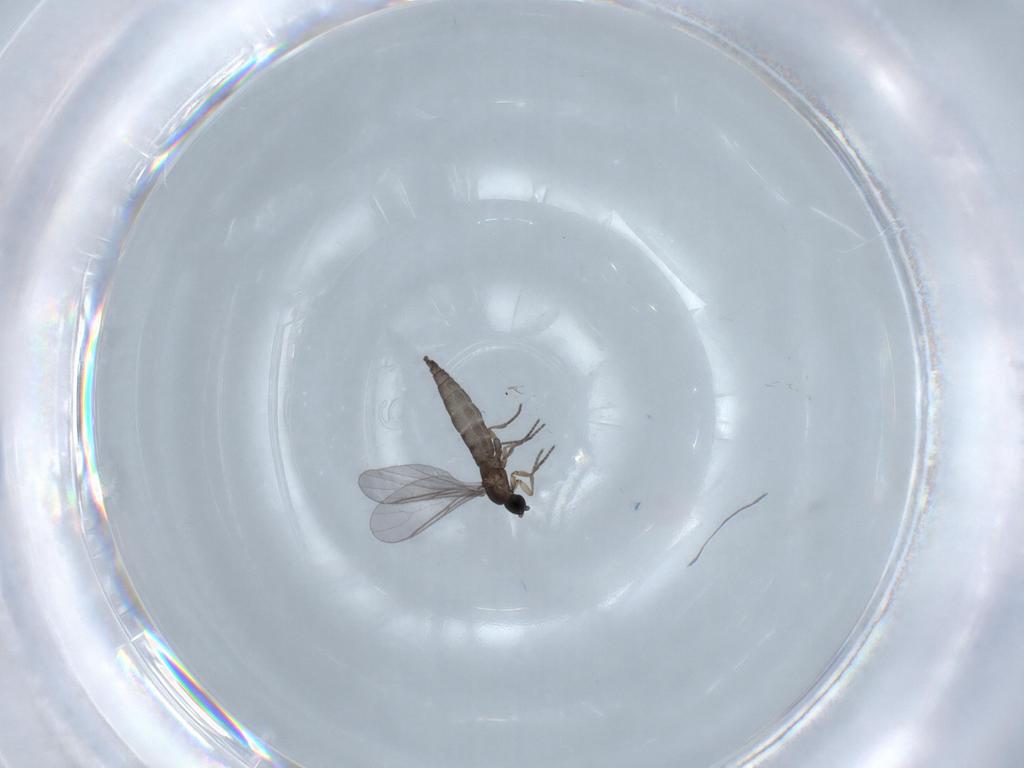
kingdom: Animalia
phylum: Arthropoda
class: Insecta
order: Diptera
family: Sciaridae
